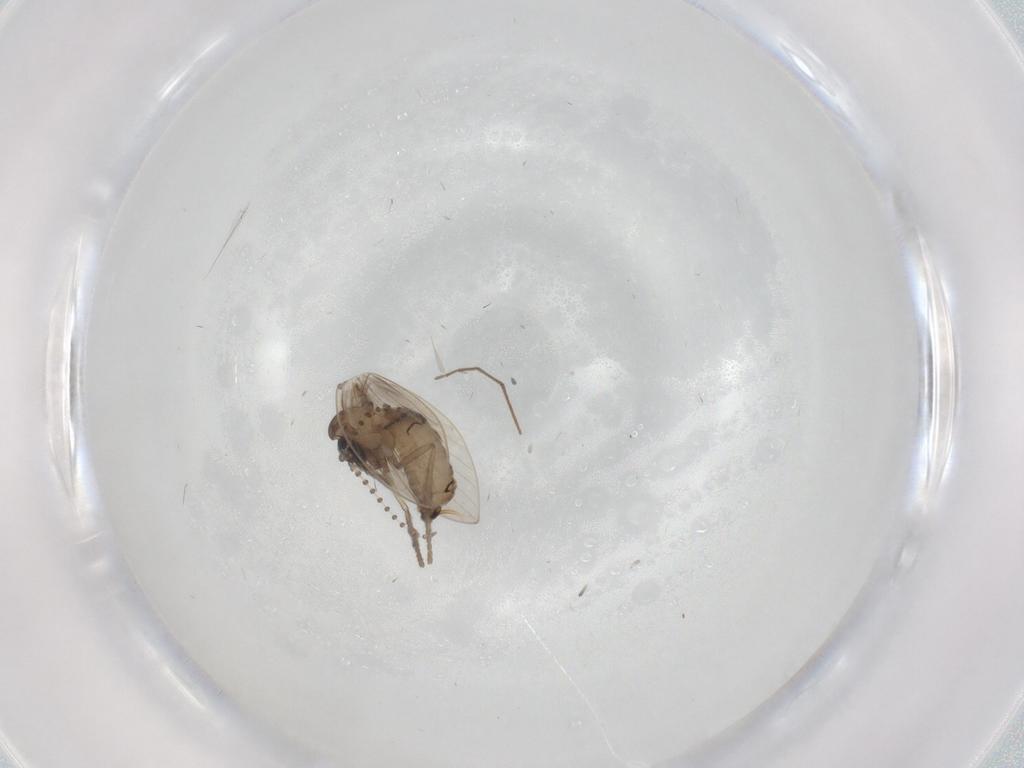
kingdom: Animalia
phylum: Arthropoda
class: Insecta
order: Diptera
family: Psychodidae
